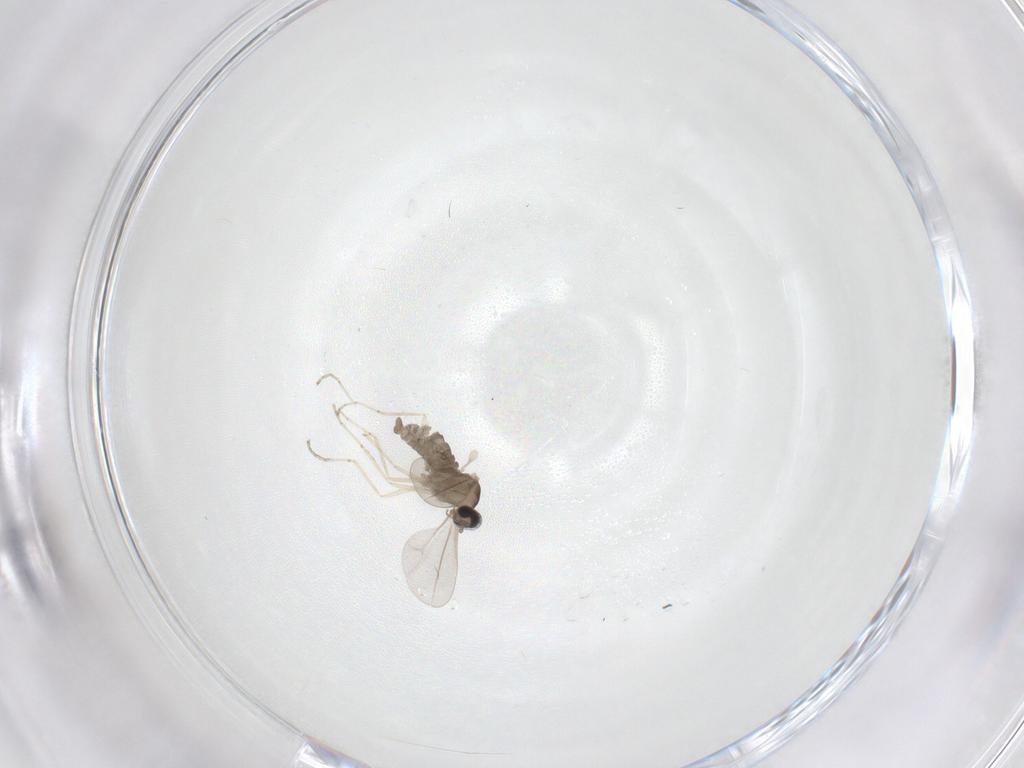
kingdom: Animalia
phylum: Arthropoda
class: Insecta
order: Diptera
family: Cecidomyiidae
